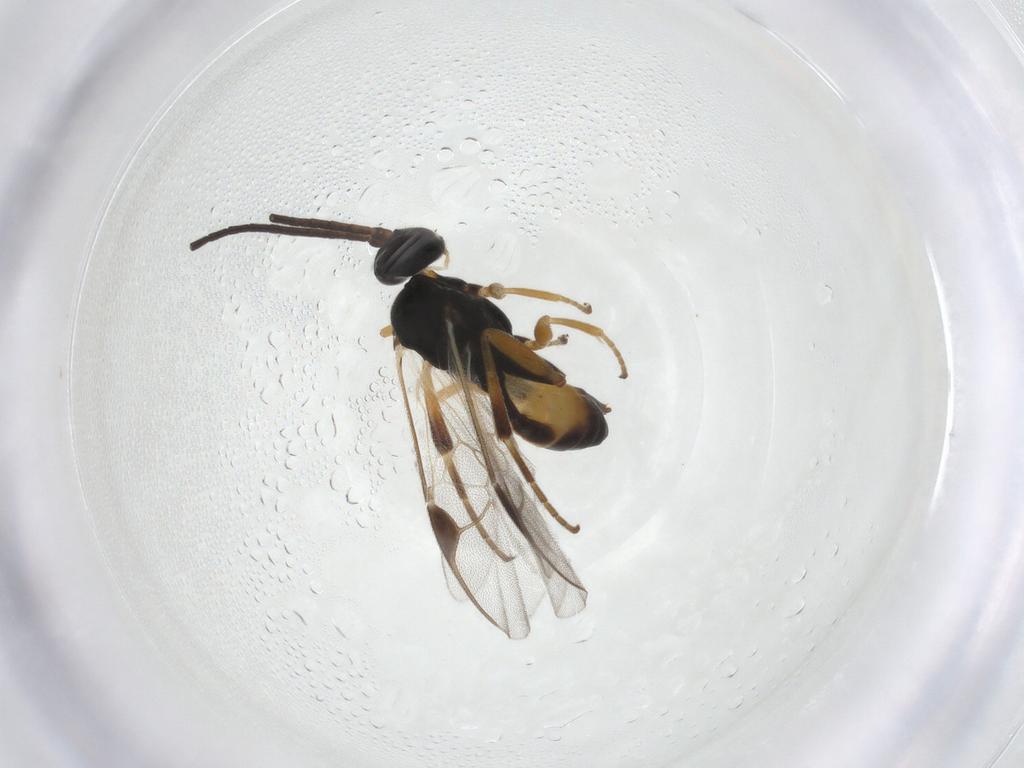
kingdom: Animalia
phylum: Arthropoda
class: Insecta
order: Hymenoptera
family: Braconidae
